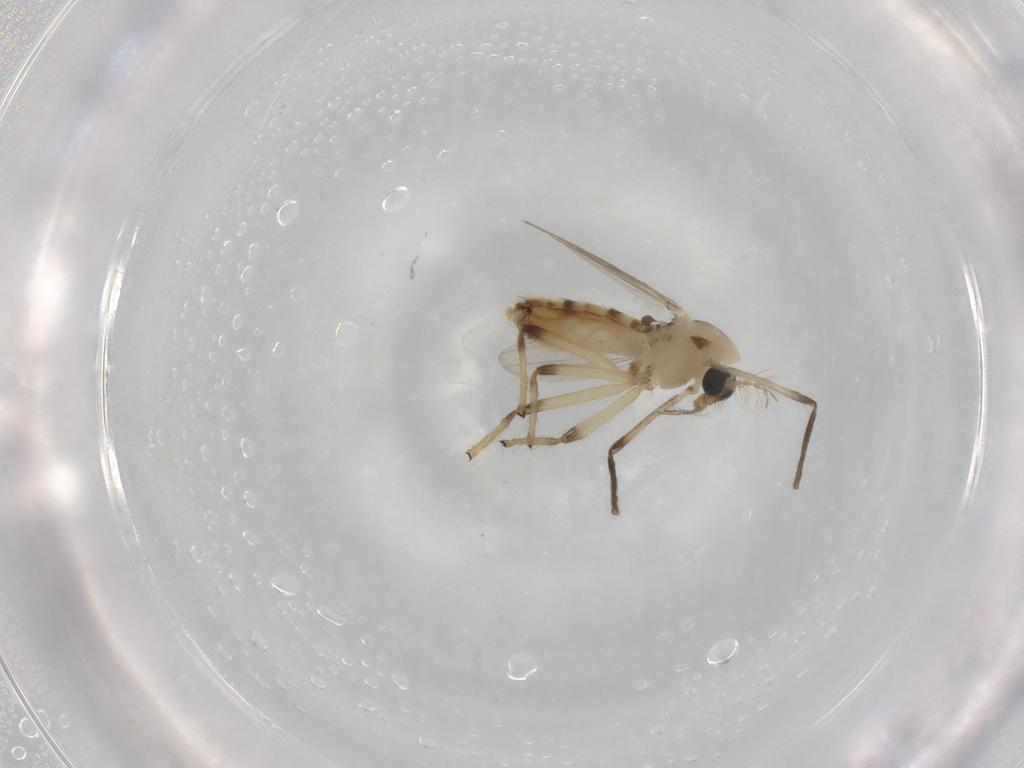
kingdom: Animalia
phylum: Arthropoda
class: Insecta
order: Diptera
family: Chironomidae
